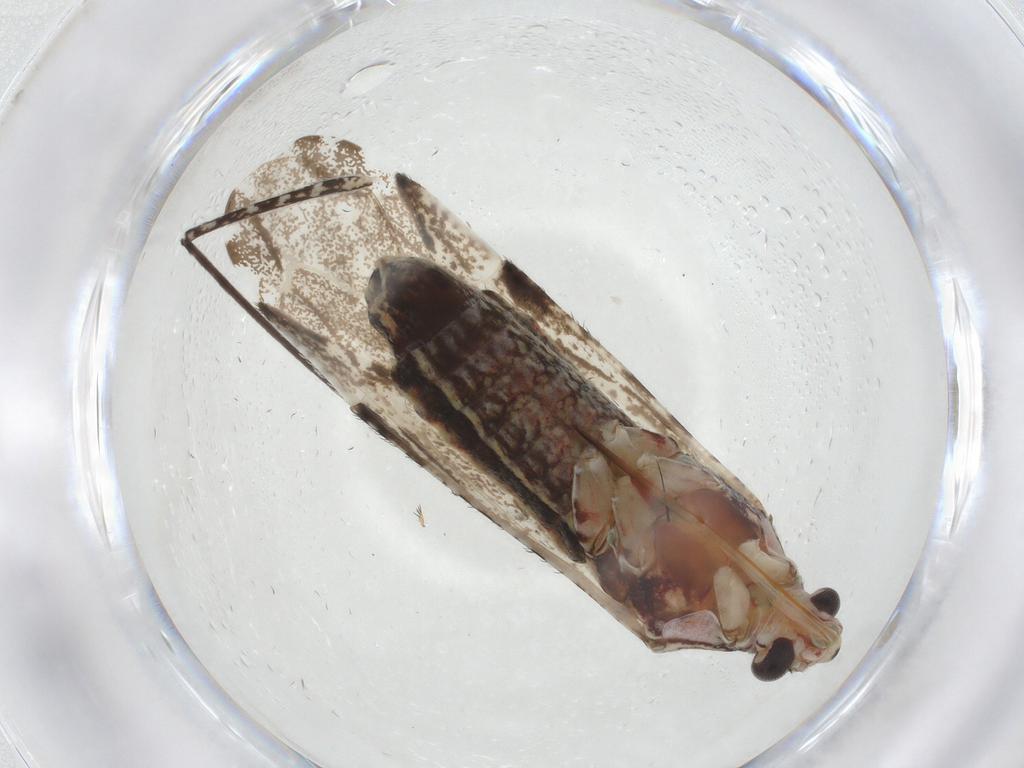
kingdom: Animalia
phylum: Arthropoda
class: Insecta
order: Hemiptera
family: Miridae
